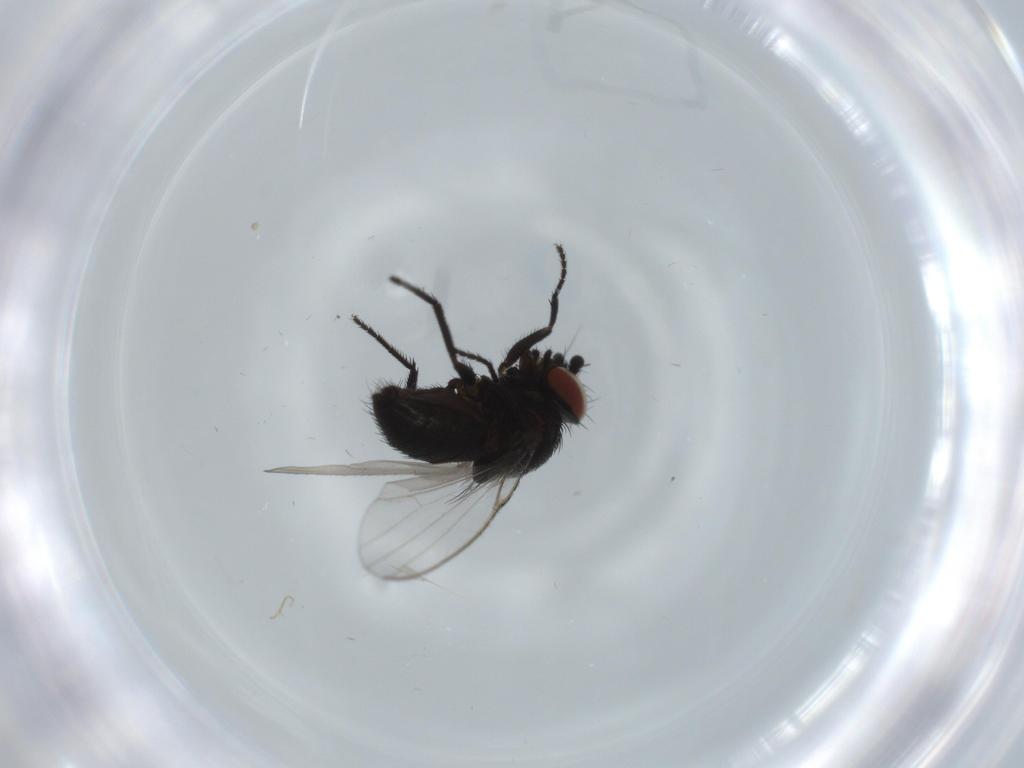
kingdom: Animalia
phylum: Arthropoda
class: Insecta
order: Diptera
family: Milichiidae
